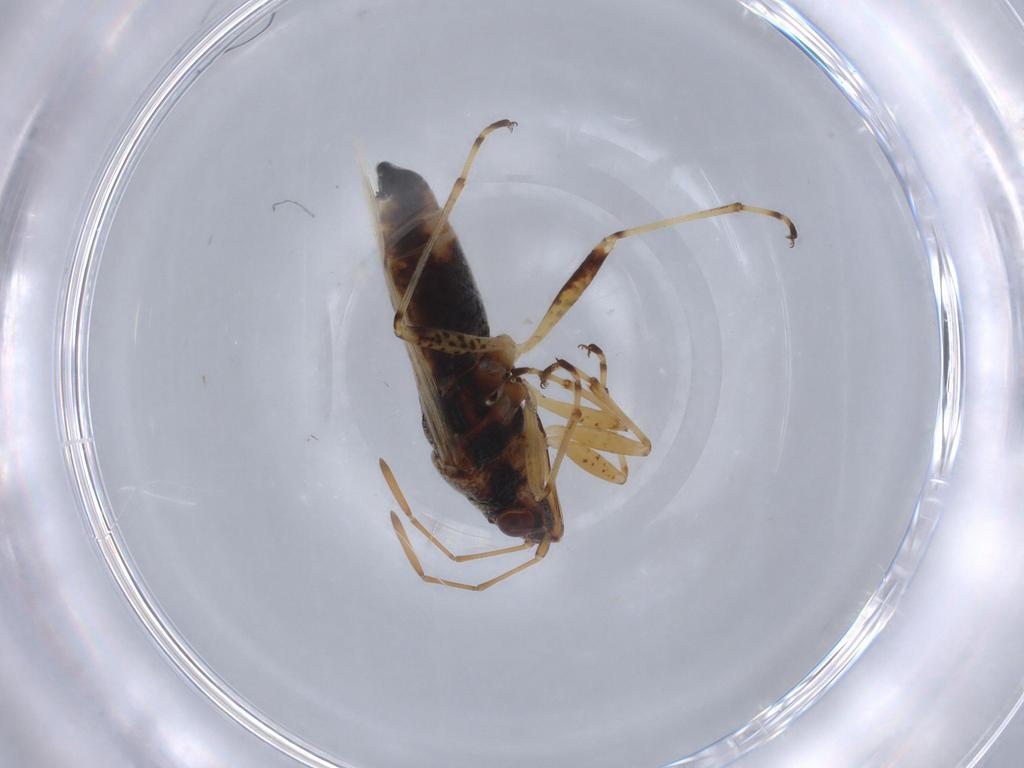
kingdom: Animalia
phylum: Arthropoda
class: Insecta
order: Hemiptera
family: Lygaeidae
